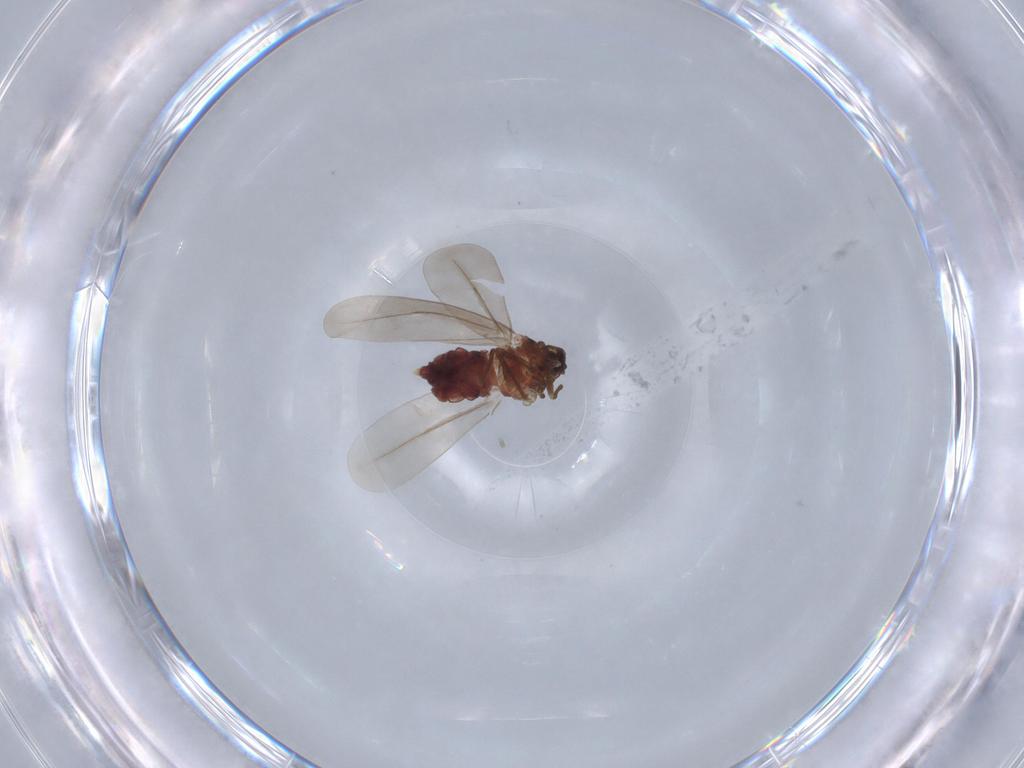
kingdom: Animalia
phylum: Arthropoda
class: Insecta
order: Hemiptera
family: Aleyrodidae
